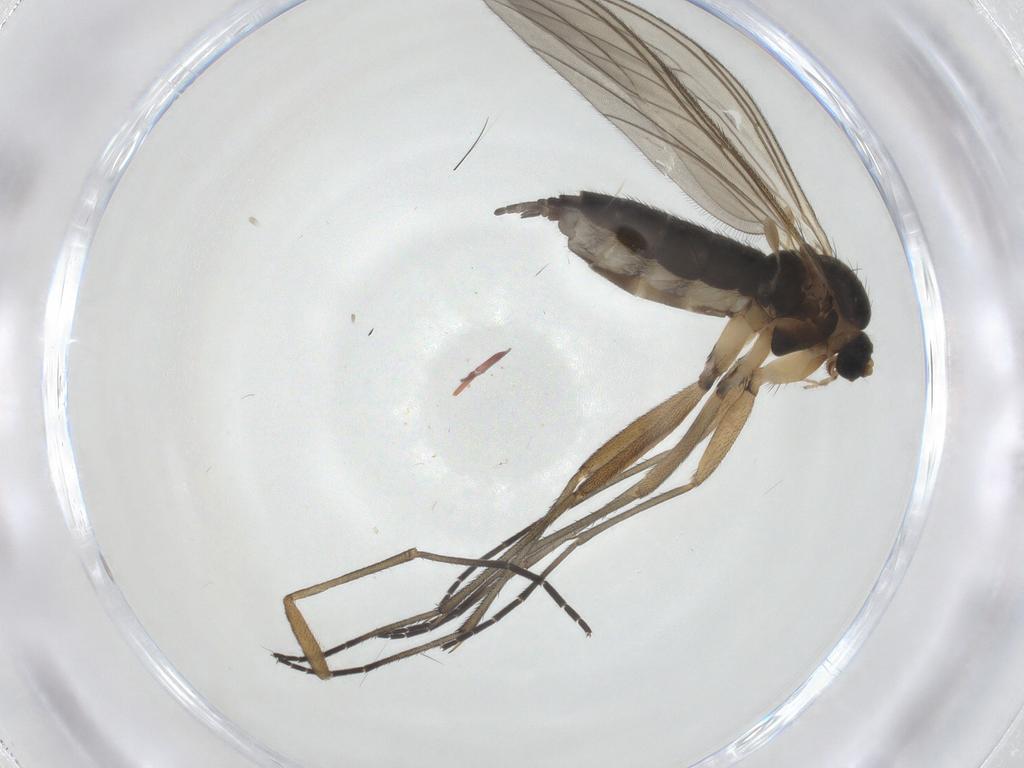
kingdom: Animalia
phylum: Arthropoda
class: Insecta
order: Diptera
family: Sciaridae
